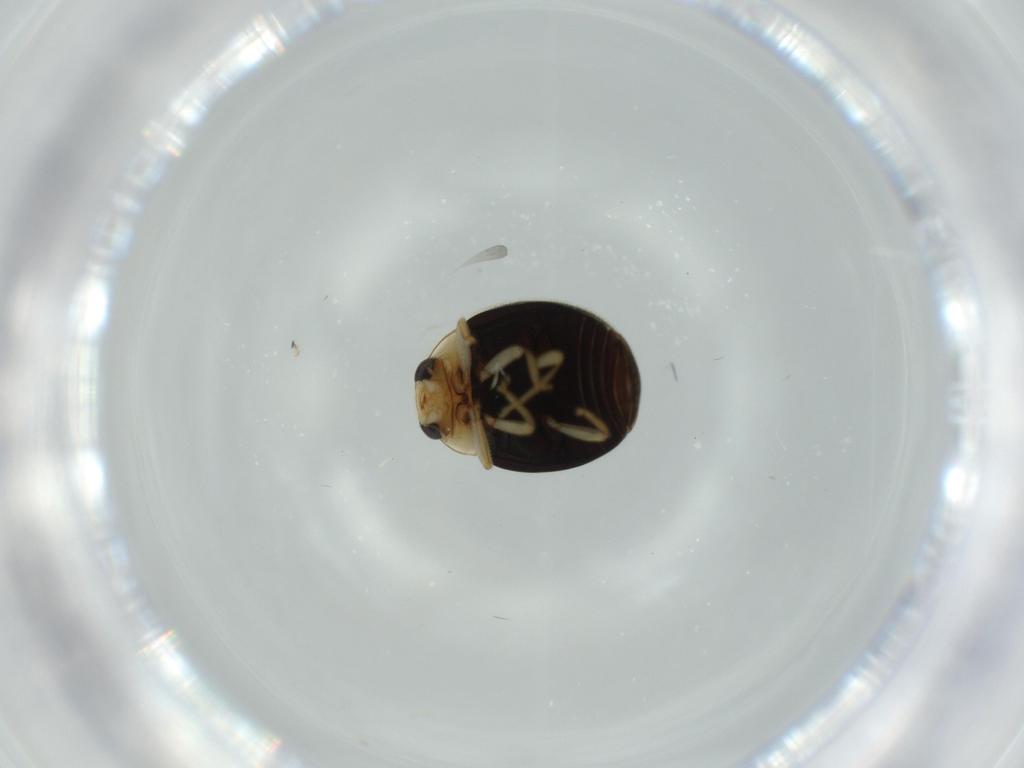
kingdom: Animalia
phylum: Arthropoda
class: Insecta
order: Coleoptera
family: Coccinellidae
